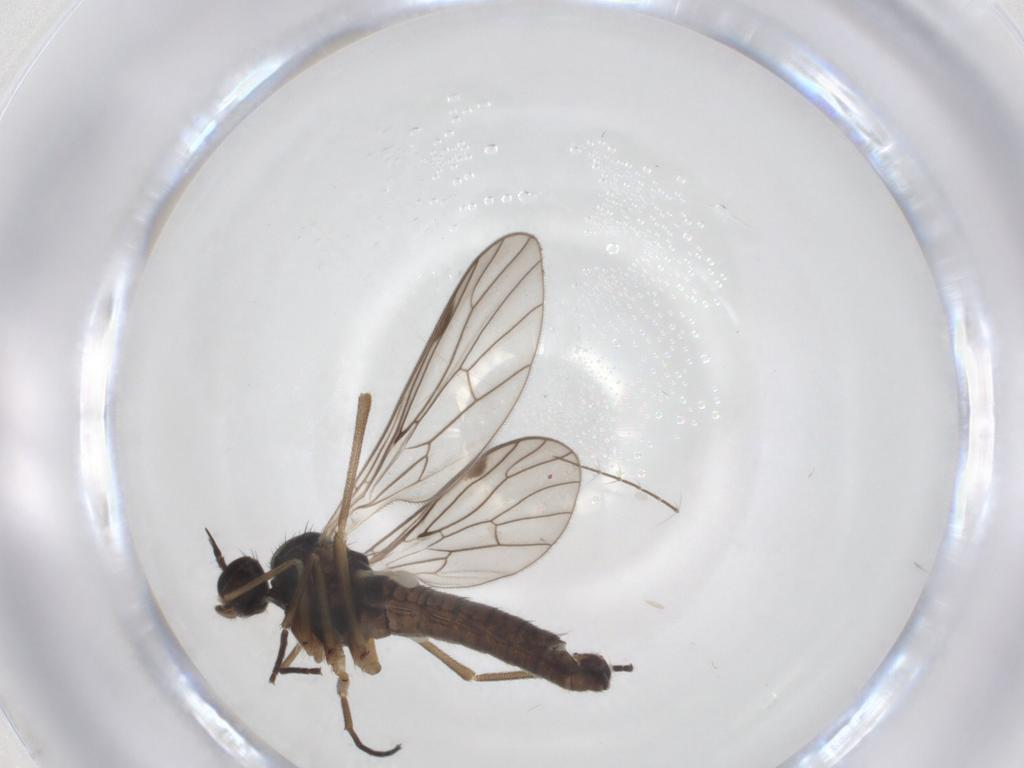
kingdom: Animalia
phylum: Arthropoda
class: Insecta
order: Diptera
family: Empididae
